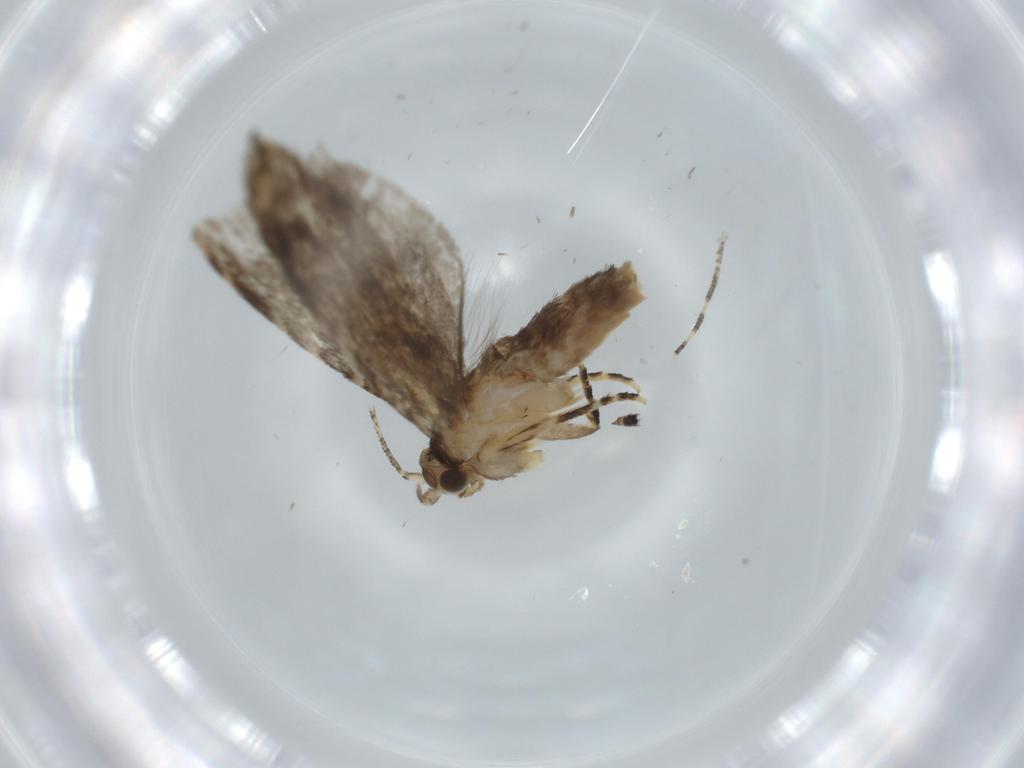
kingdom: Animalia
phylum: Arthropoda
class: Insecta
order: Lepidoptera
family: Tineidae
